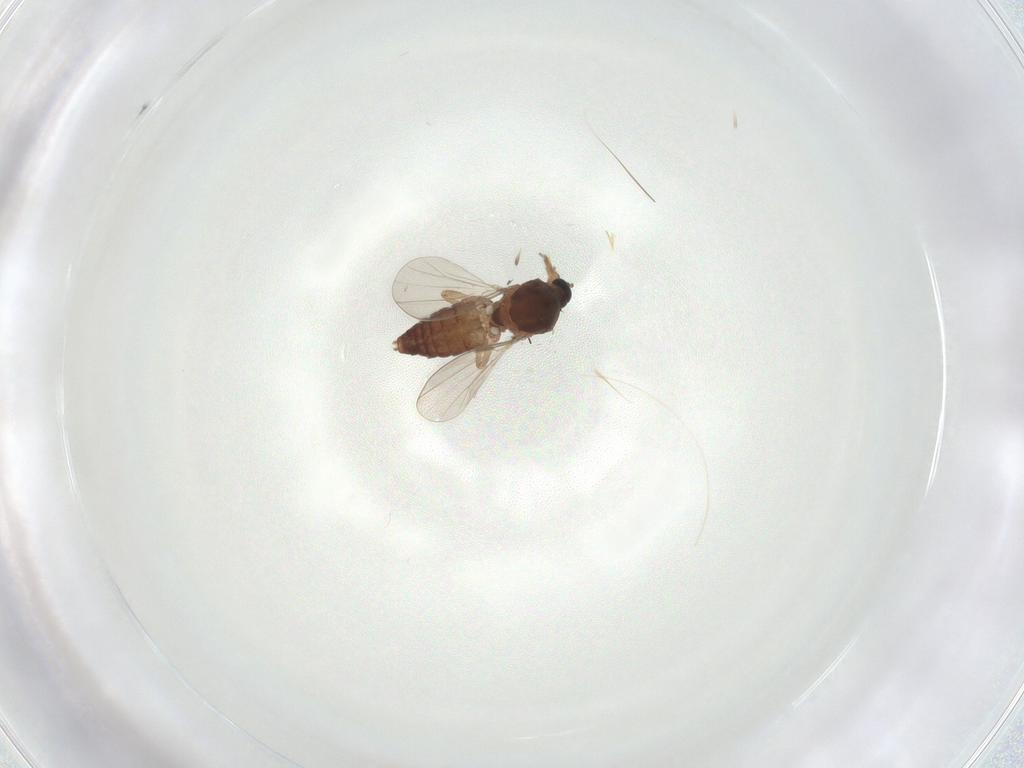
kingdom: Animalia
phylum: Arthropoda
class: Insecta
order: Diptera
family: Ceratopogonidae
